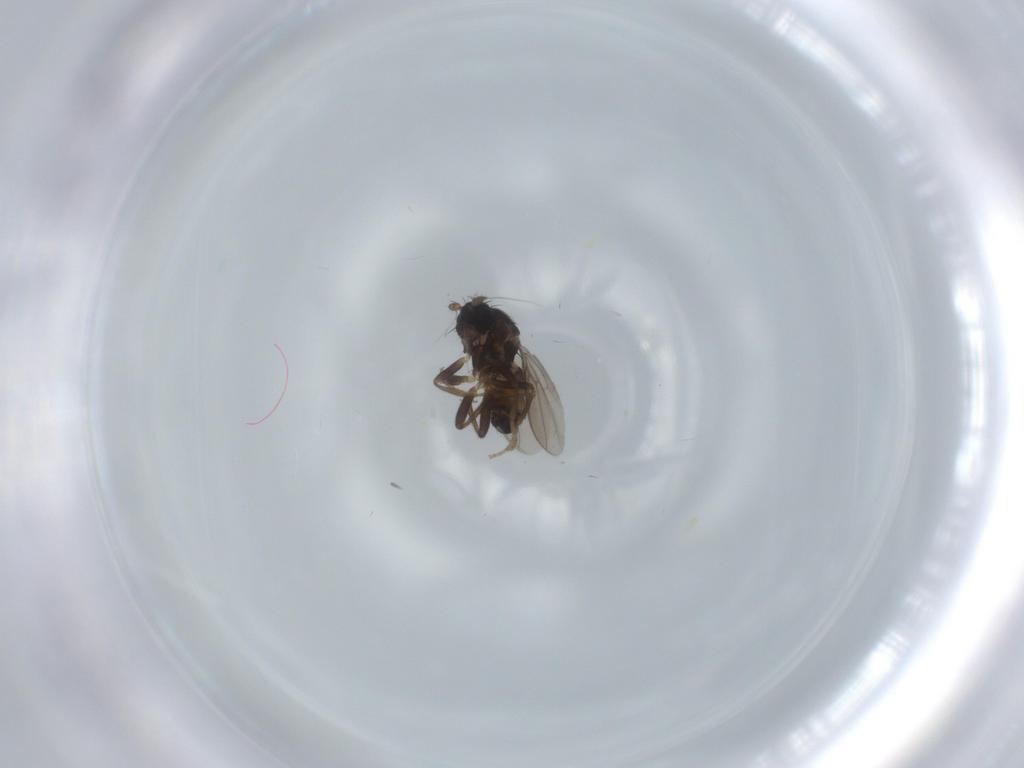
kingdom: Animalia
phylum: Arthropoda
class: Insecta
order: Diptera
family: Sphaeroceridae
